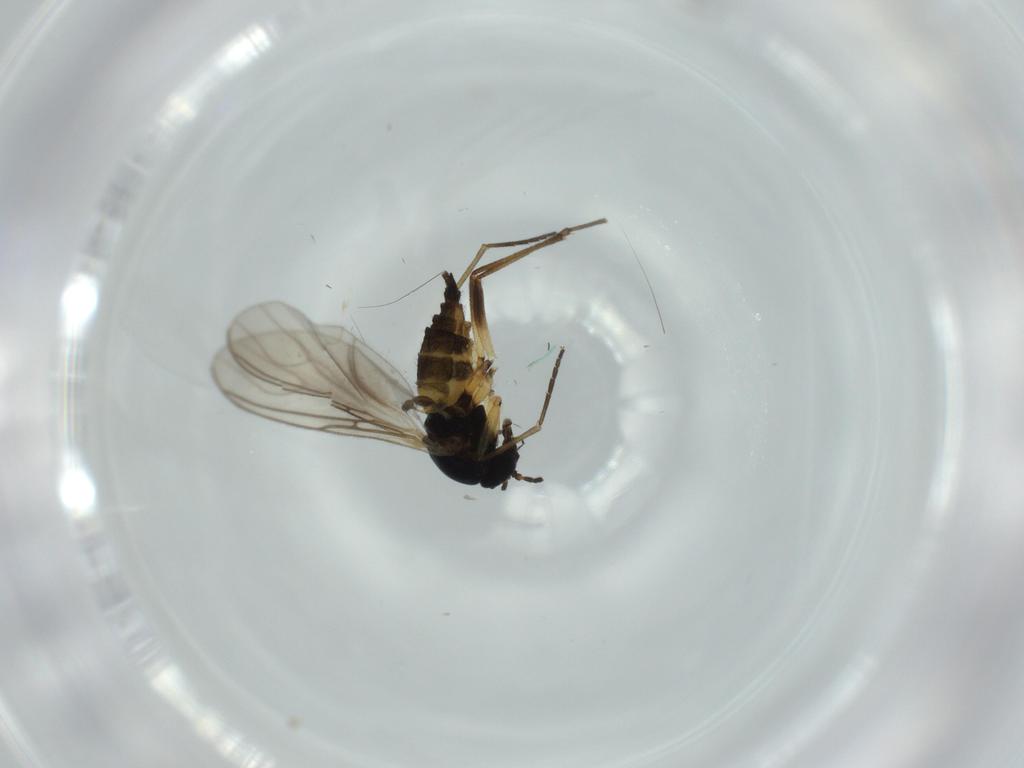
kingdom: Animalia
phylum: Arthropoda
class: Insecta
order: Diptera
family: Sciaridae
